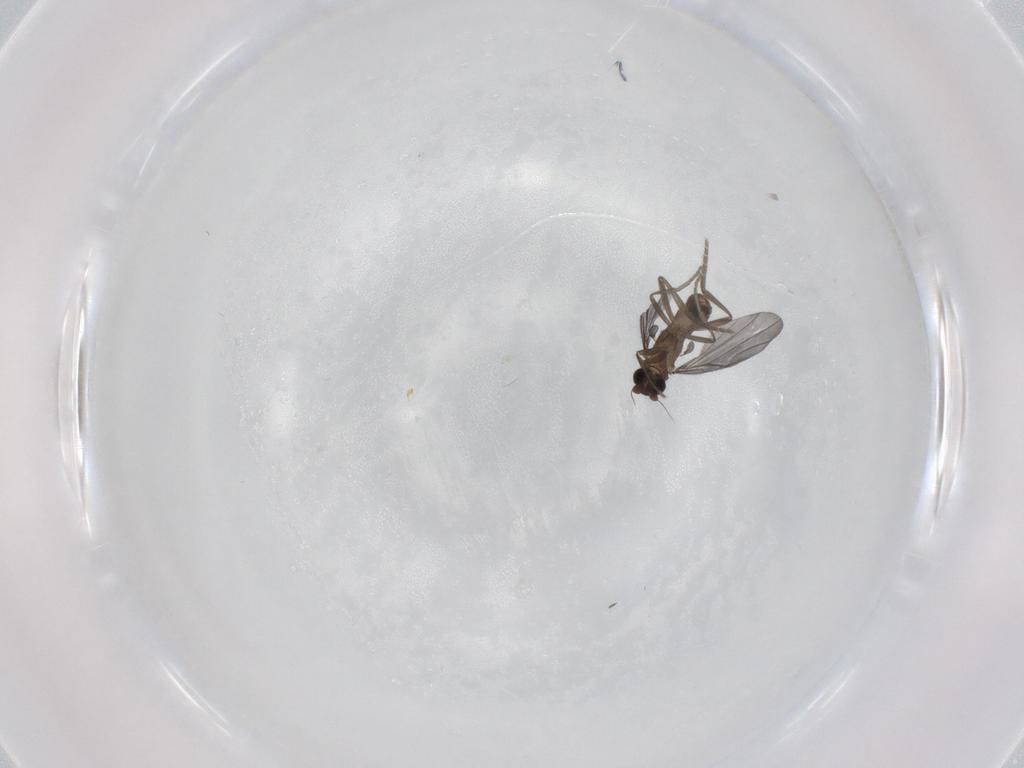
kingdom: Animalia
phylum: Arthropoda
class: Insecta
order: Diptera
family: Phoridae
